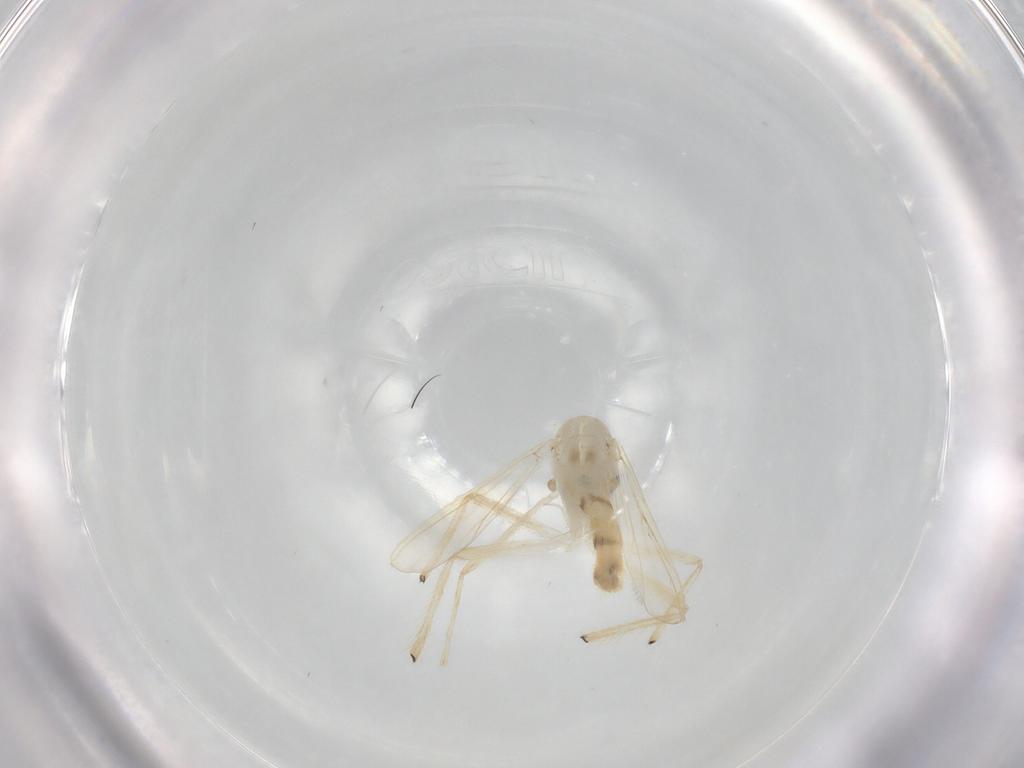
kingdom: Animalia
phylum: Arthropoda
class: Insecta
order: Diptera
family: Chironomidae
